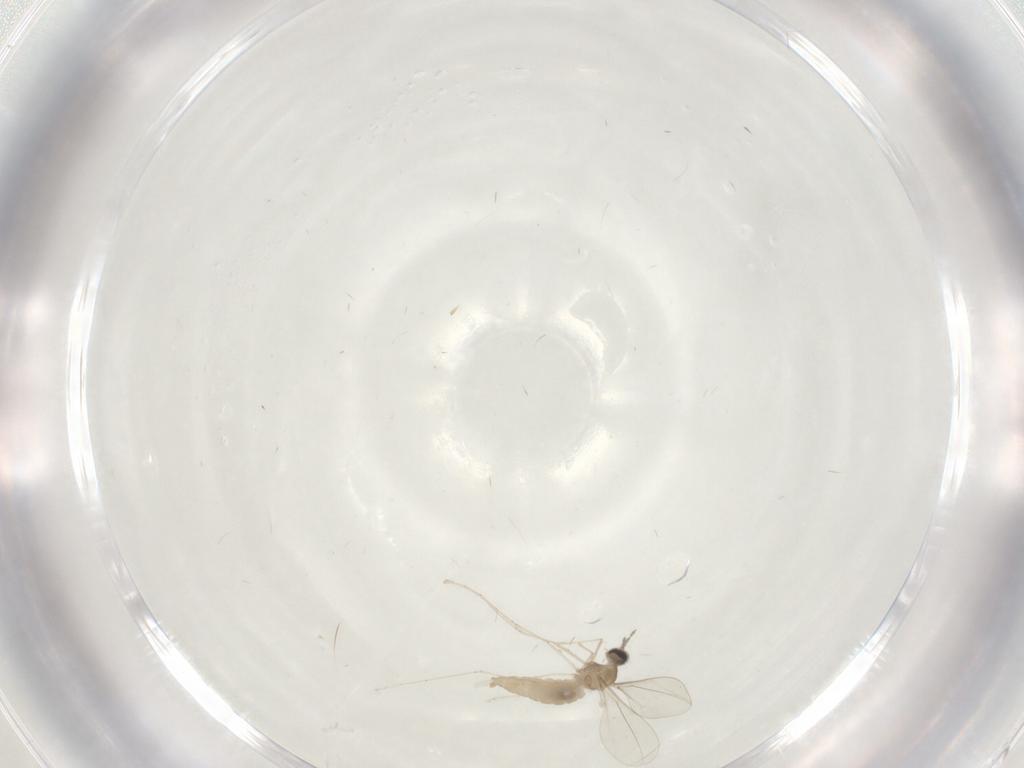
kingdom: Animalia
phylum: Arthropoda
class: Insecta
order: Diptera
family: Cecidomyiidae
